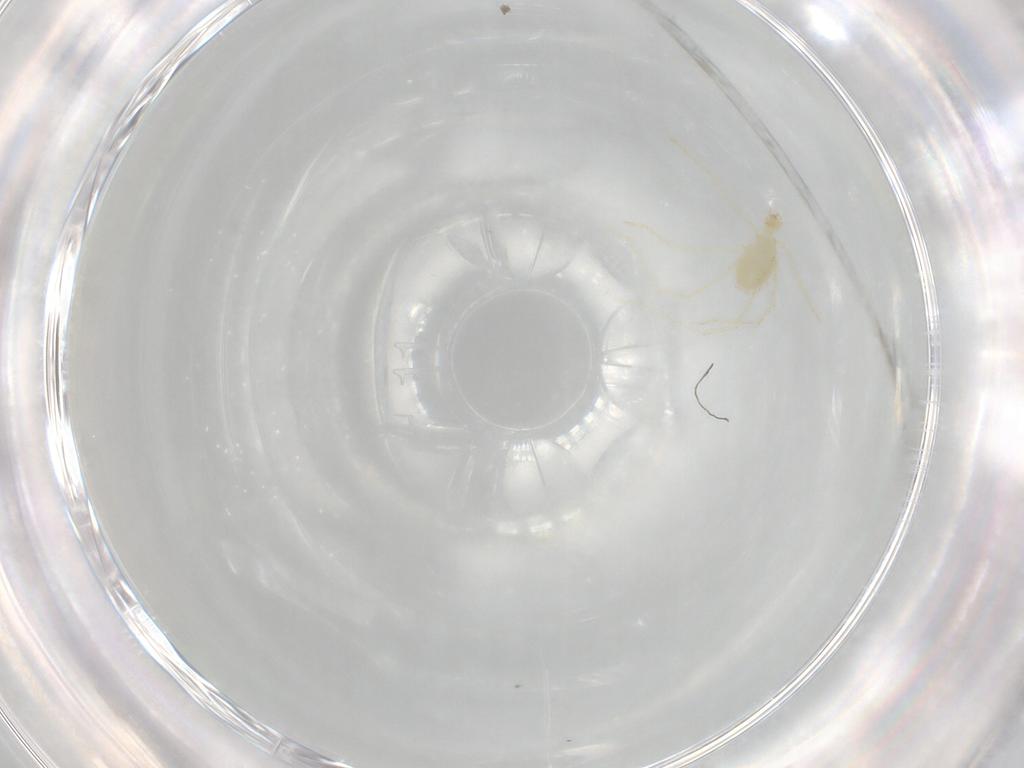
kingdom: Animalia
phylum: Arthropoda
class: Arachnida
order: Trombidiformes
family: Erythraeidae
